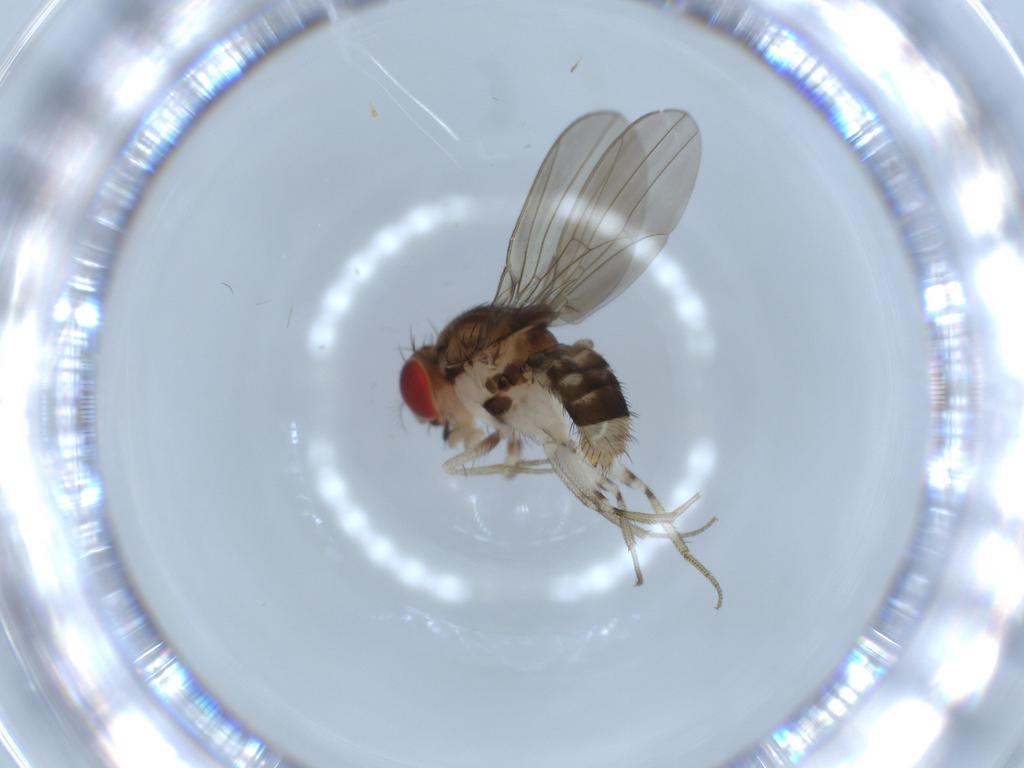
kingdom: Animalia
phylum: Arthropoda
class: Insecta
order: Diptera
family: Drosophilidae
